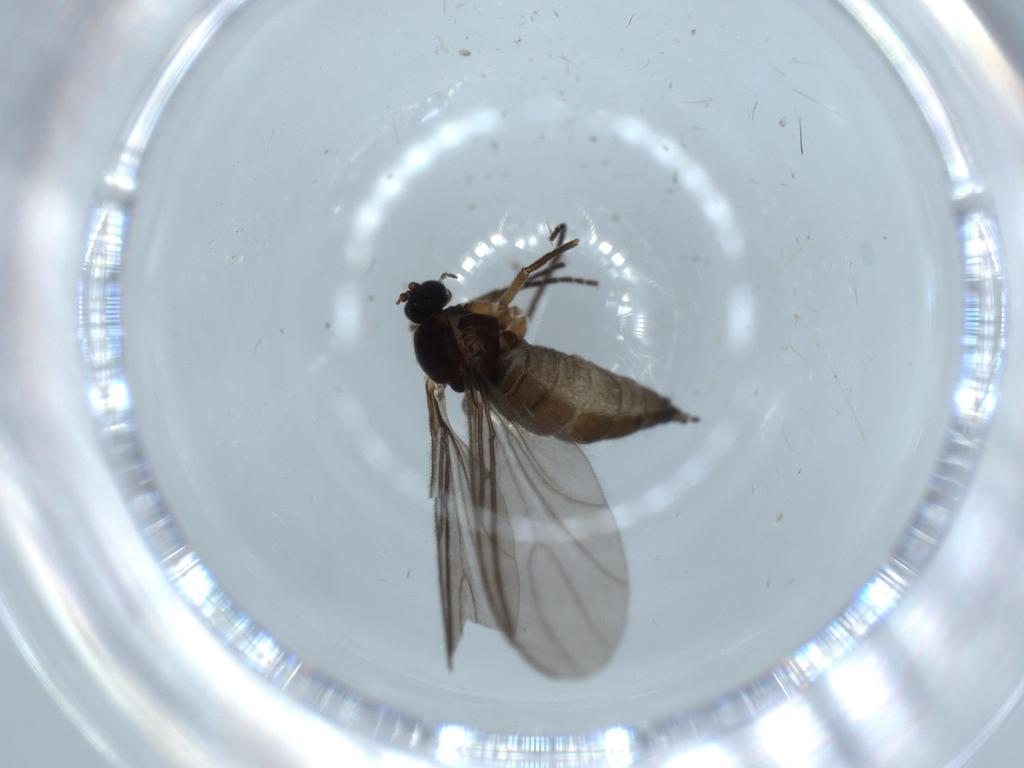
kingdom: Animalia
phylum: Arthropoda
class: Insecta
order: Diptera
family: Sciaridae
